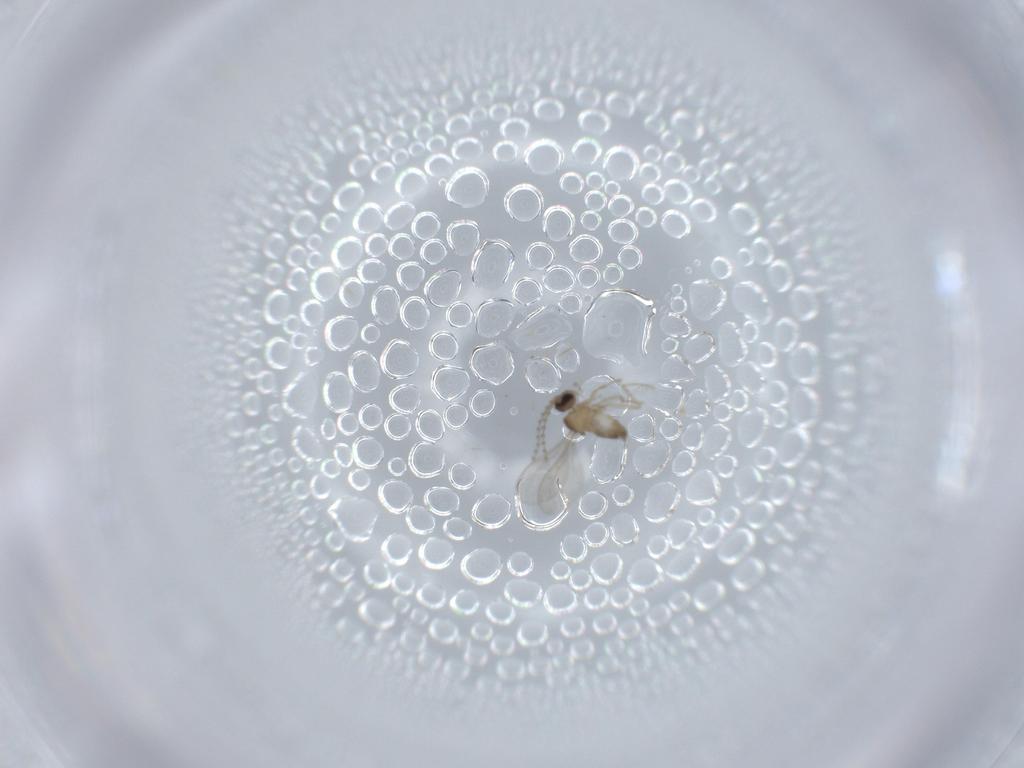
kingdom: Animalia
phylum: Arthropoda
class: Insecta
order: Diptera
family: Cecidomyiidae
